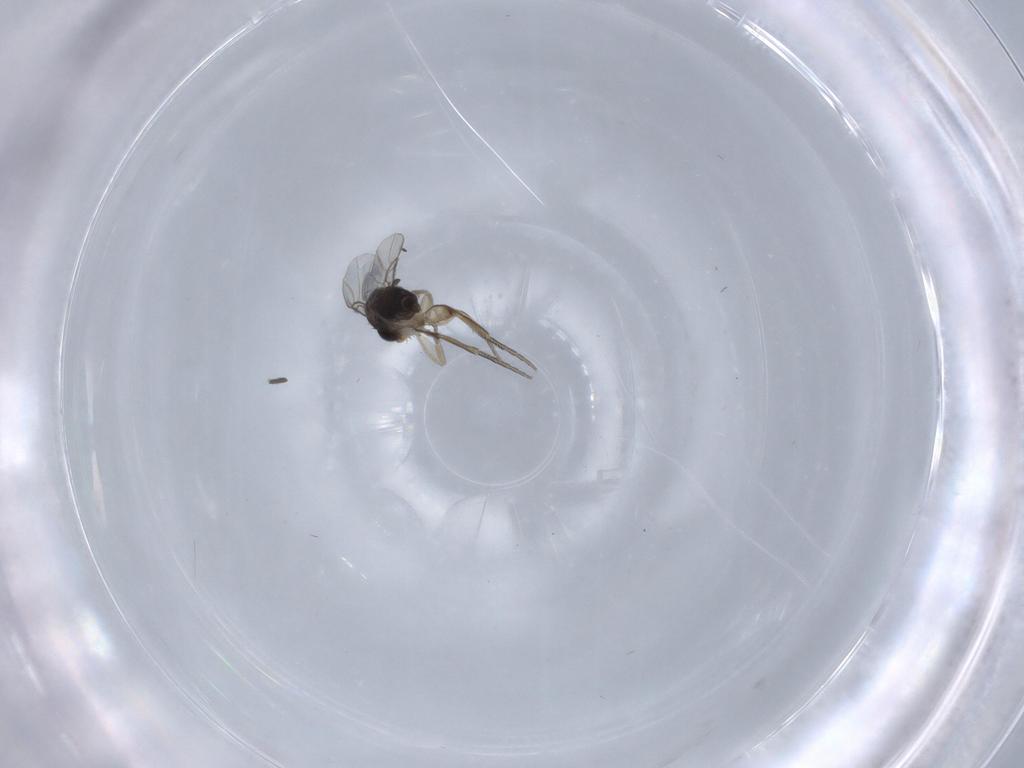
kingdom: Animalia
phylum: Arthropoda
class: Insecta
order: Diptera
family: Phoridae
